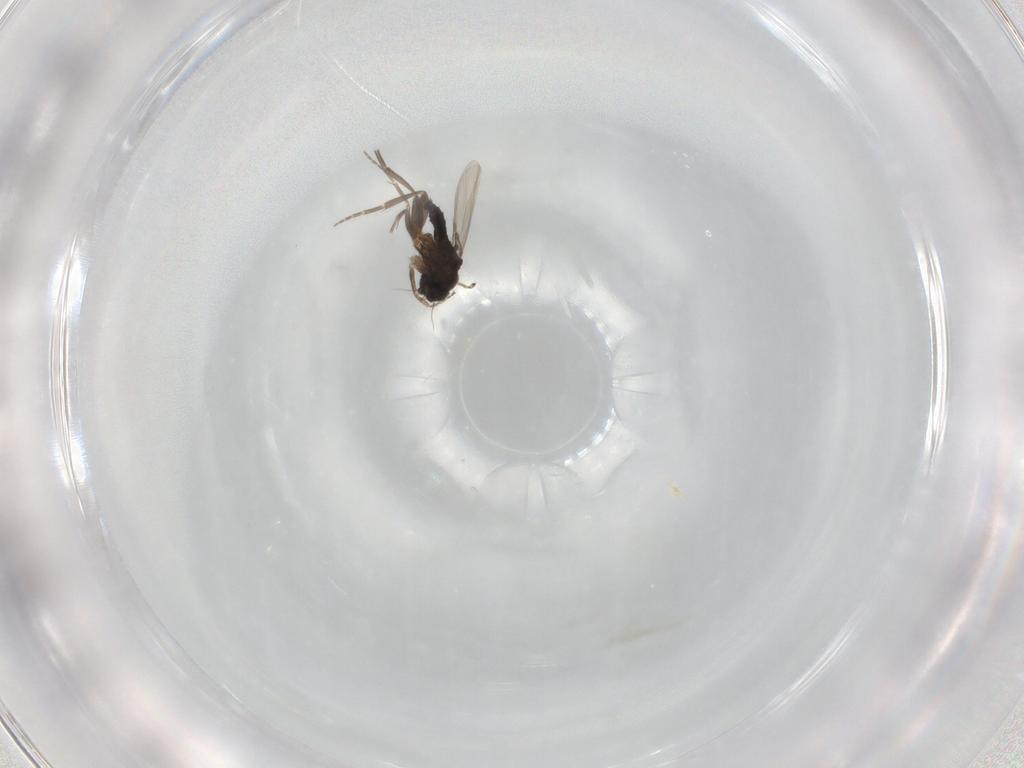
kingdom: Animalia
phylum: Arthropoda
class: Insecta
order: Diptera
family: Phoridae
